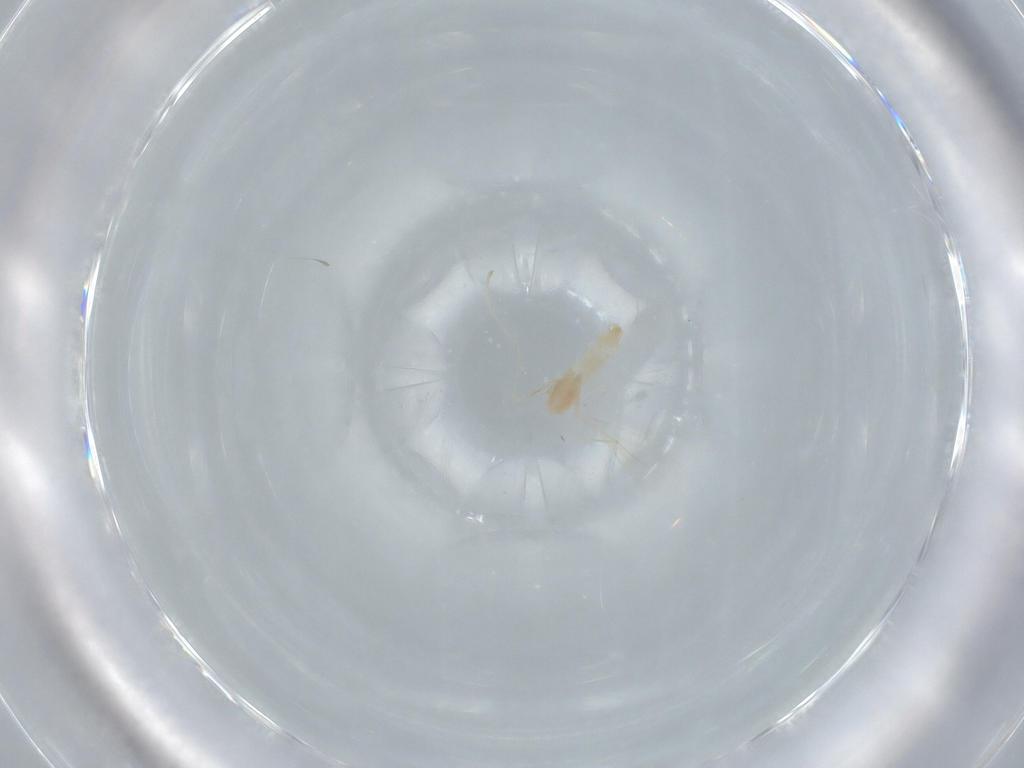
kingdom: Animalia
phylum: Arthropoda
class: Insecta
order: Diptera
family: Cecidomyiidae
